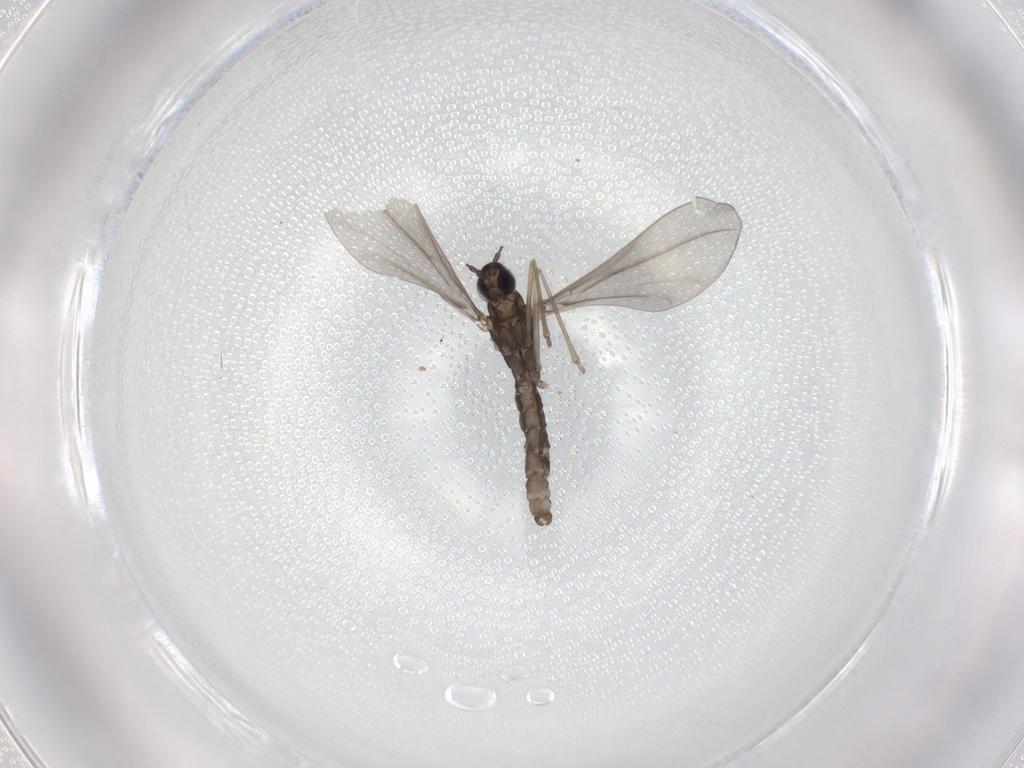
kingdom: Animalia
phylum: Arthropoda
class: Insecta
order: Diptera
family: Cecidomyiidae
